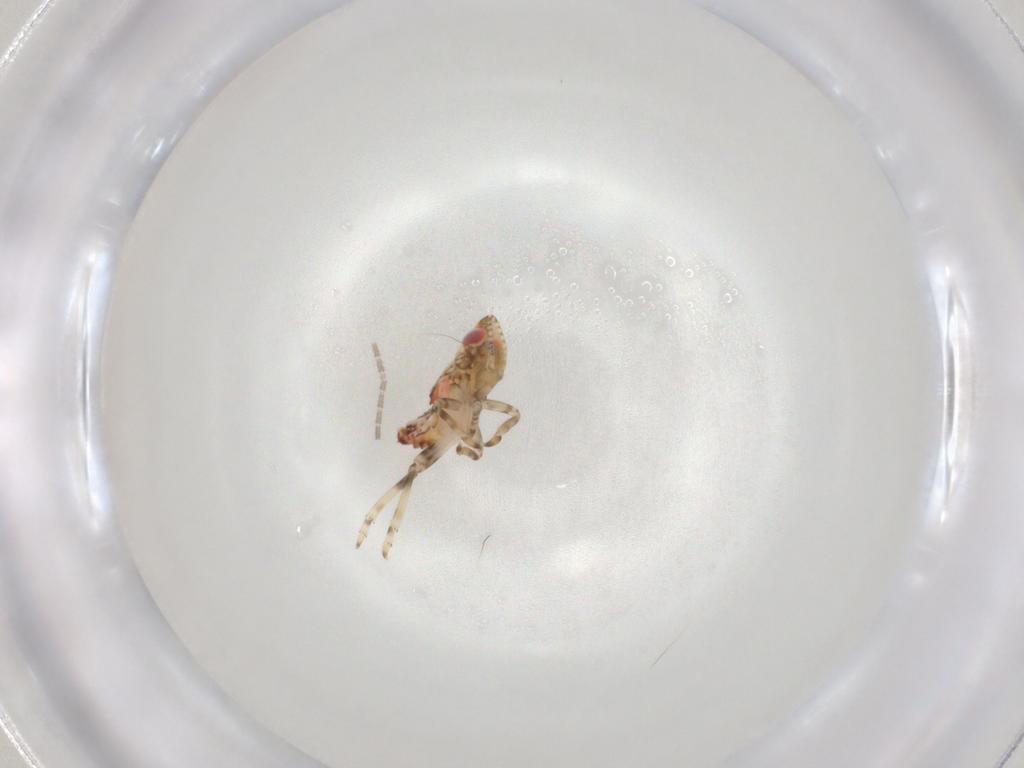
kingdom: Animalia
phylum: Arthropoda
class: Insecta
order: Hemiptera
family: Tropiduchidae
